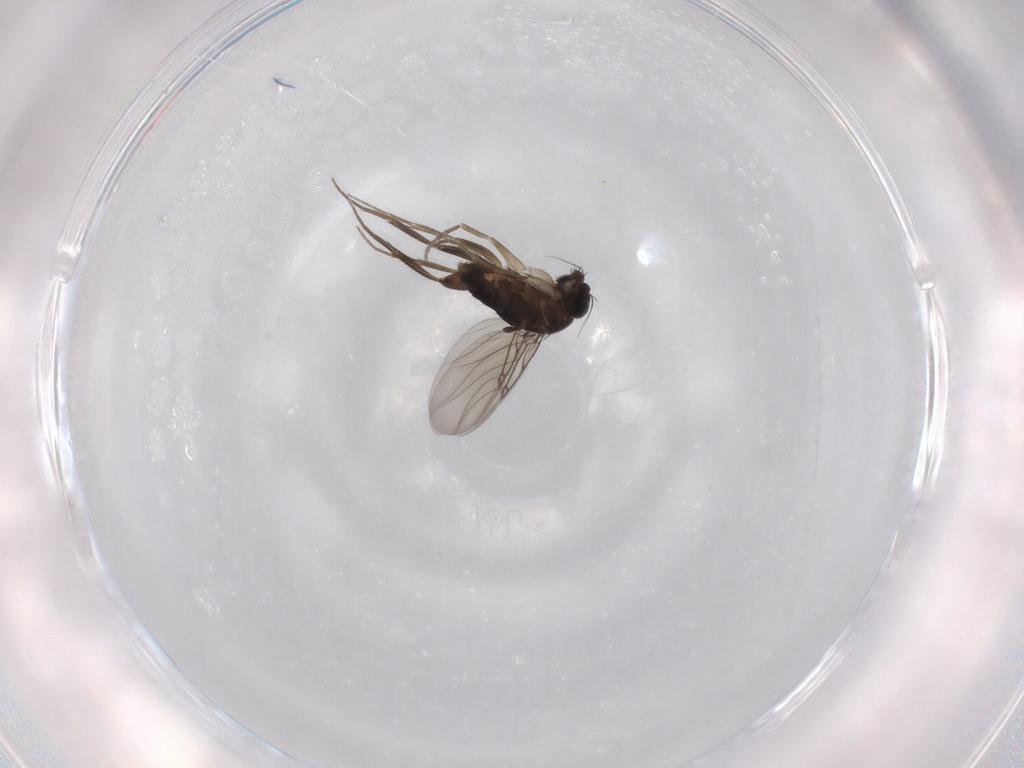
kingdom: Animalia
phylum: Arthropoda
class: Insecta
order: Diptera
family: Phoridae
